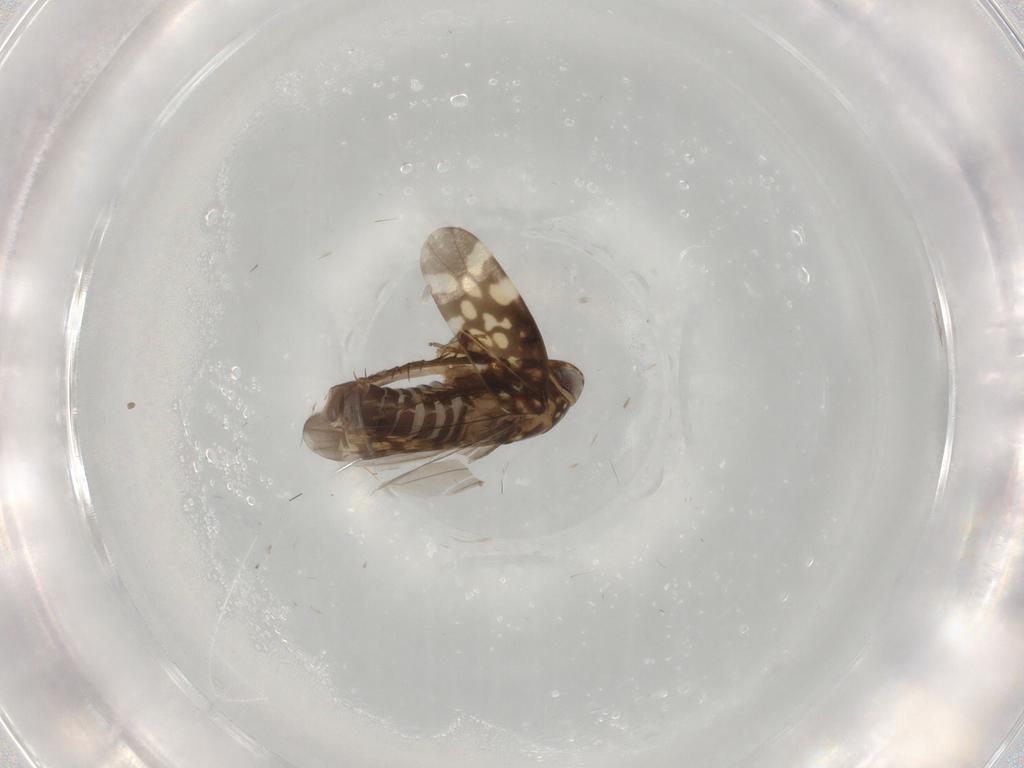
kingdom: Animalia
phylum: Arthropoda
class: Insecta
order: Hemiptera
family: Cicadellidae
